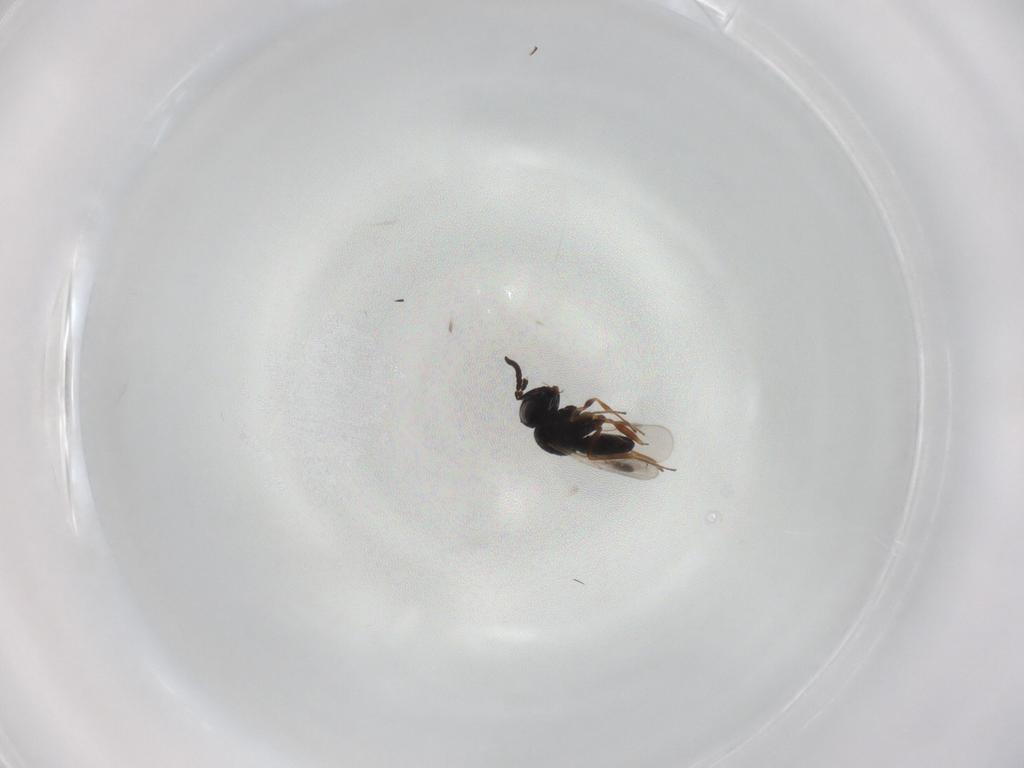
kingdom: Animalia
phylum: Arthropoda
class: Insecta
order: Hymenoptera
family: Scelionidae
